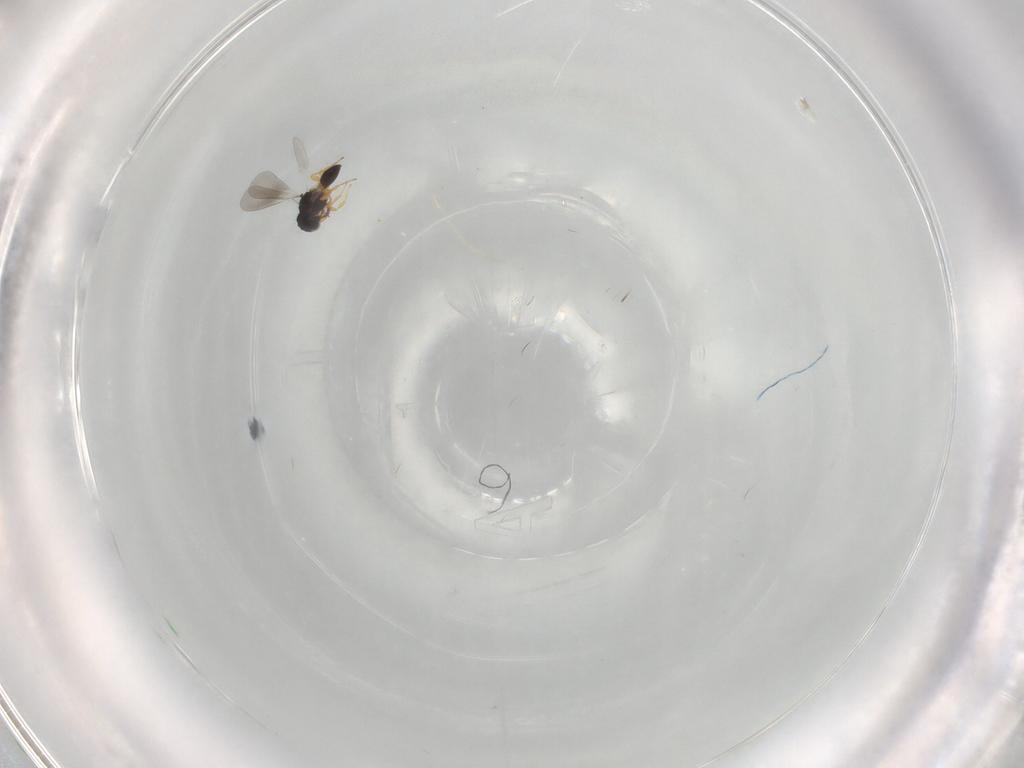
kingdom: Animalia
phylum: Arthropoda
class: Insecta
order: Hymenoptera
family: Platygastridae
